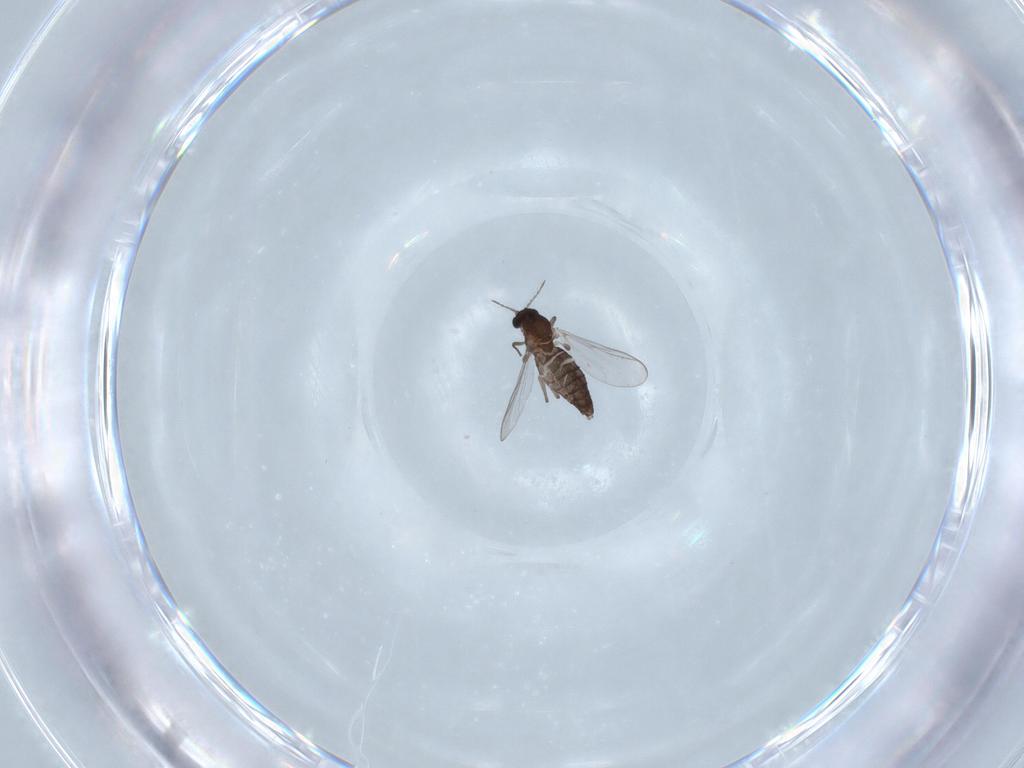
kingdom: Animalia
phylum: Arthropoda
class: Insecta
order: Diptera
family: Chironomidae
